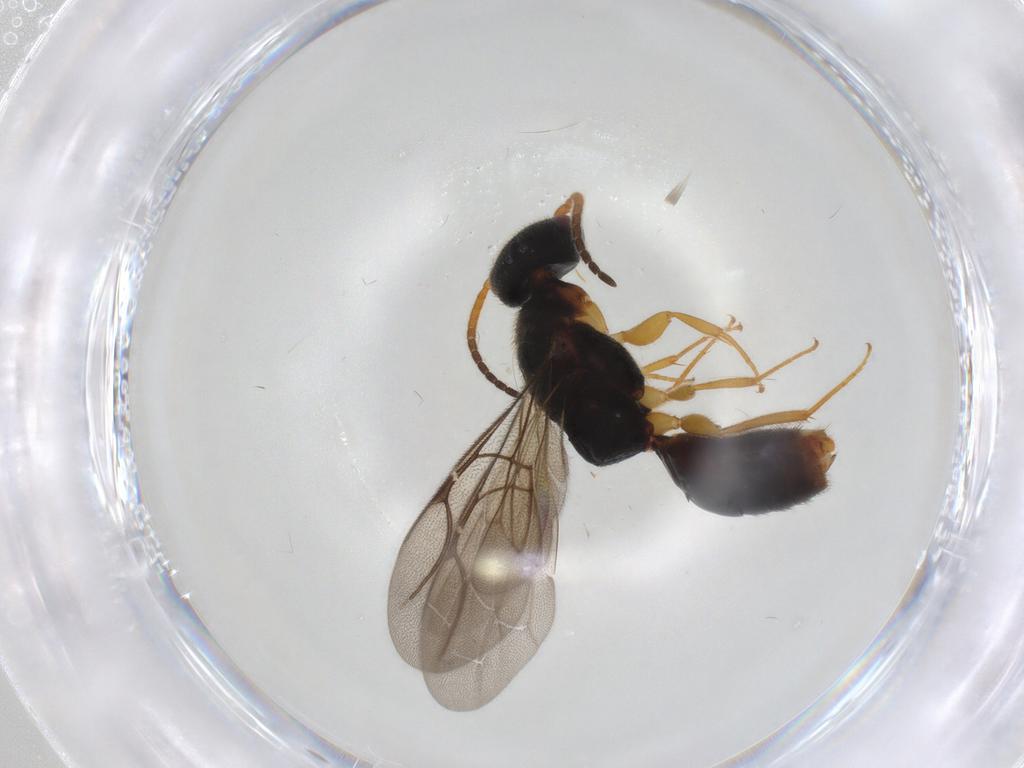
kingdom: Animalia
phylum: Arthropoda
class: Insecta
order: Hymenoptera
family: Bethylidae
